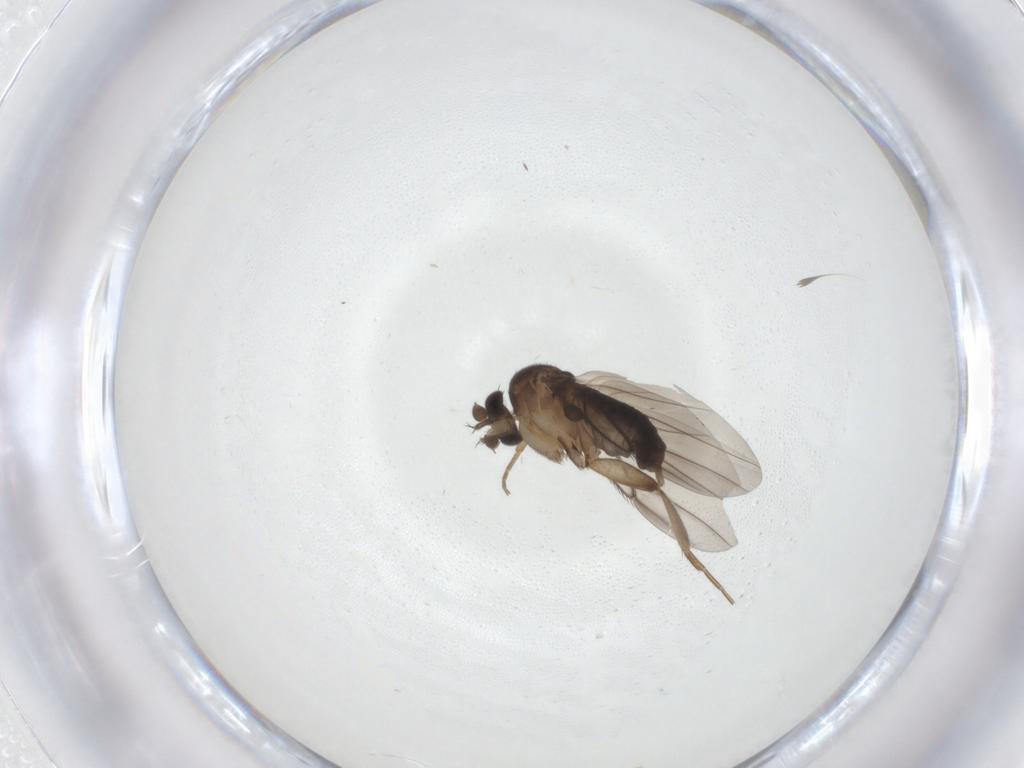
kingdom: Animalia
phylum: Arthropoda
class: Insecta
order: Diptera
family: Phoridae
